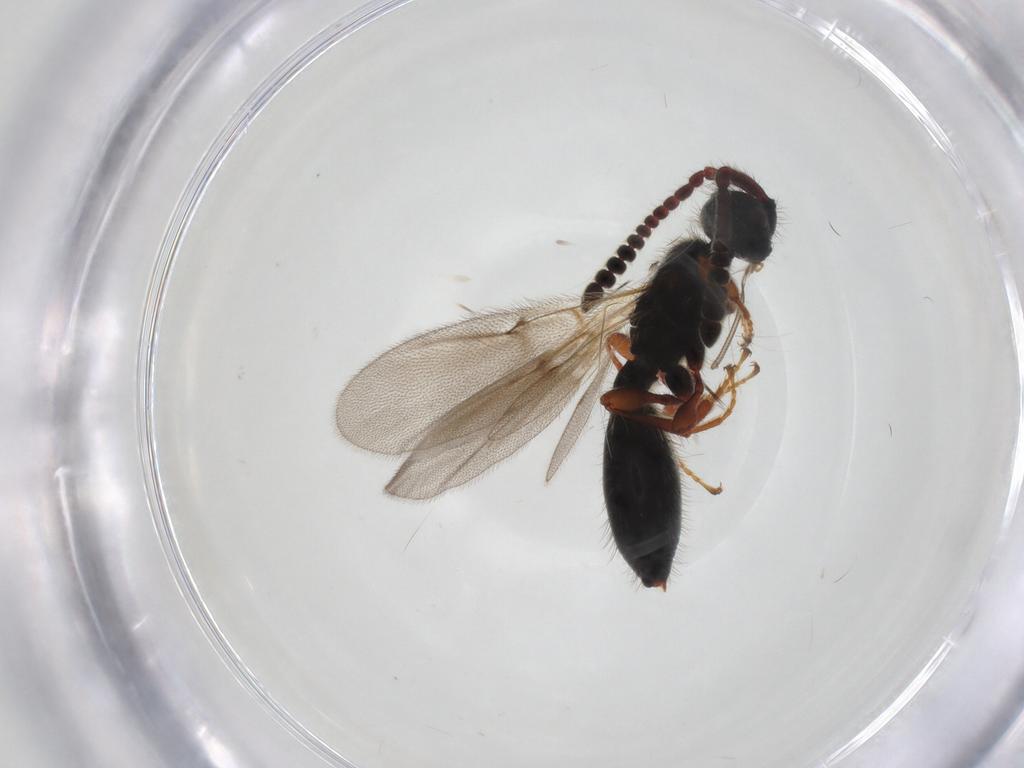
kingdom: Animalia
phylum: Arthropoda
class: Insecta
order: Hymenoptera
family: Diapriidae
